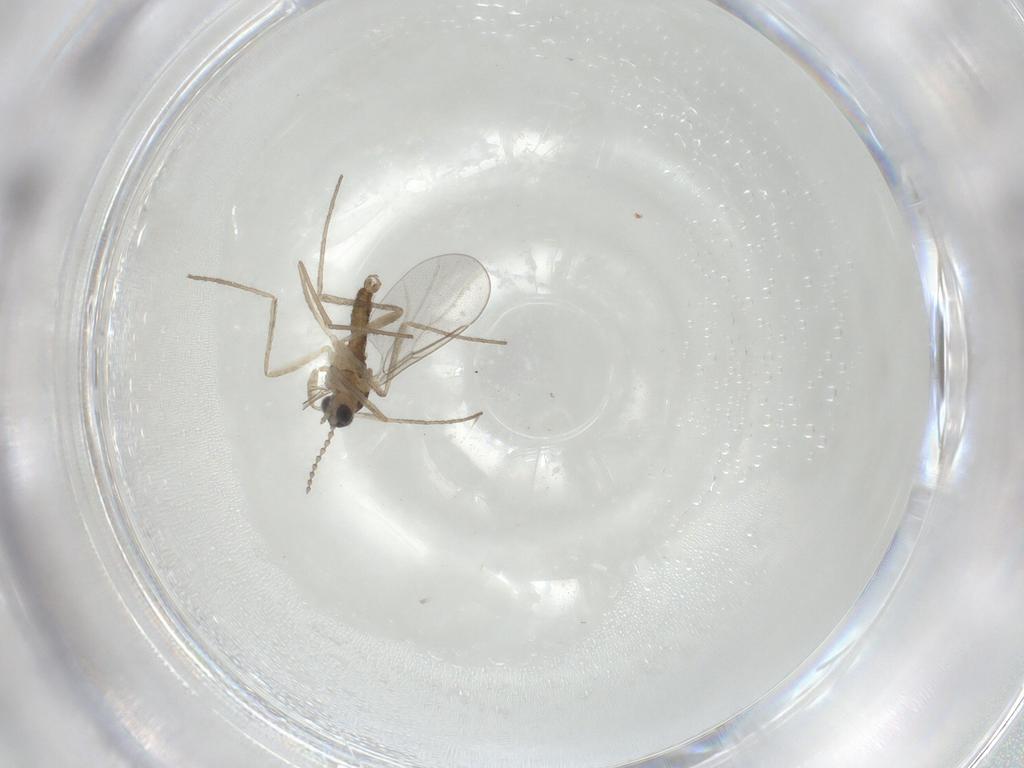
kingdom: Animalia
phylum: Arthropoda
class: Insecta
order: Diptera
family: Cecidomyiidae
